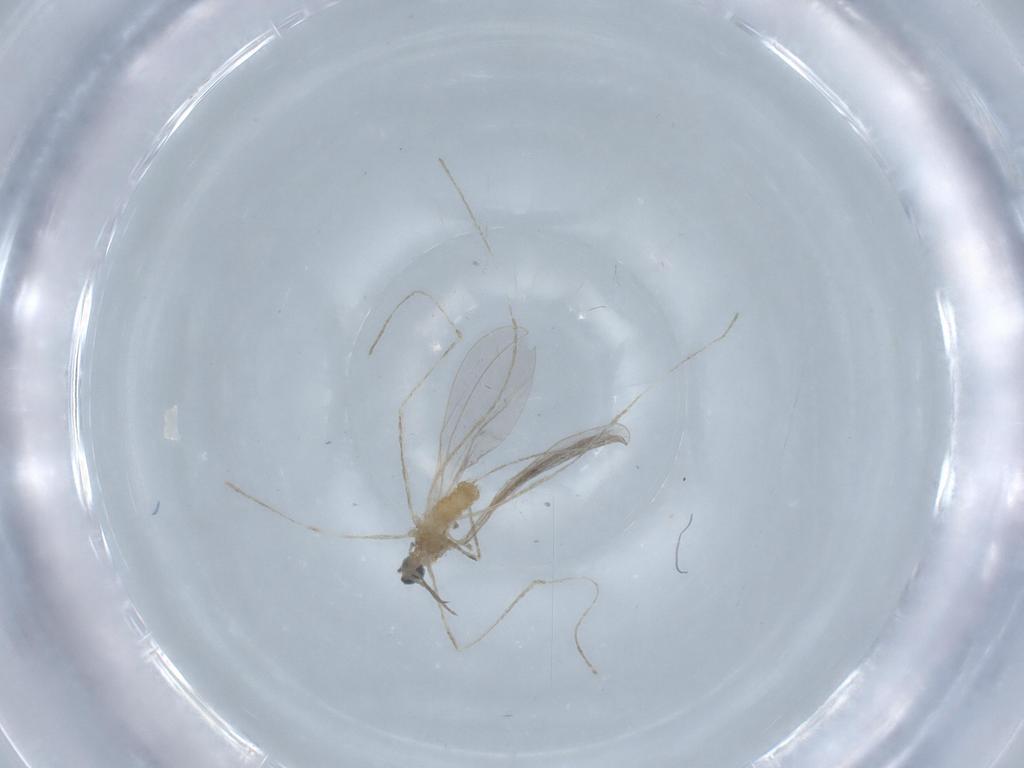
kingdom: Animalia
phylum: Arthropoda
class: Insecta
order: Diptera
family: Cecidomyiidae
